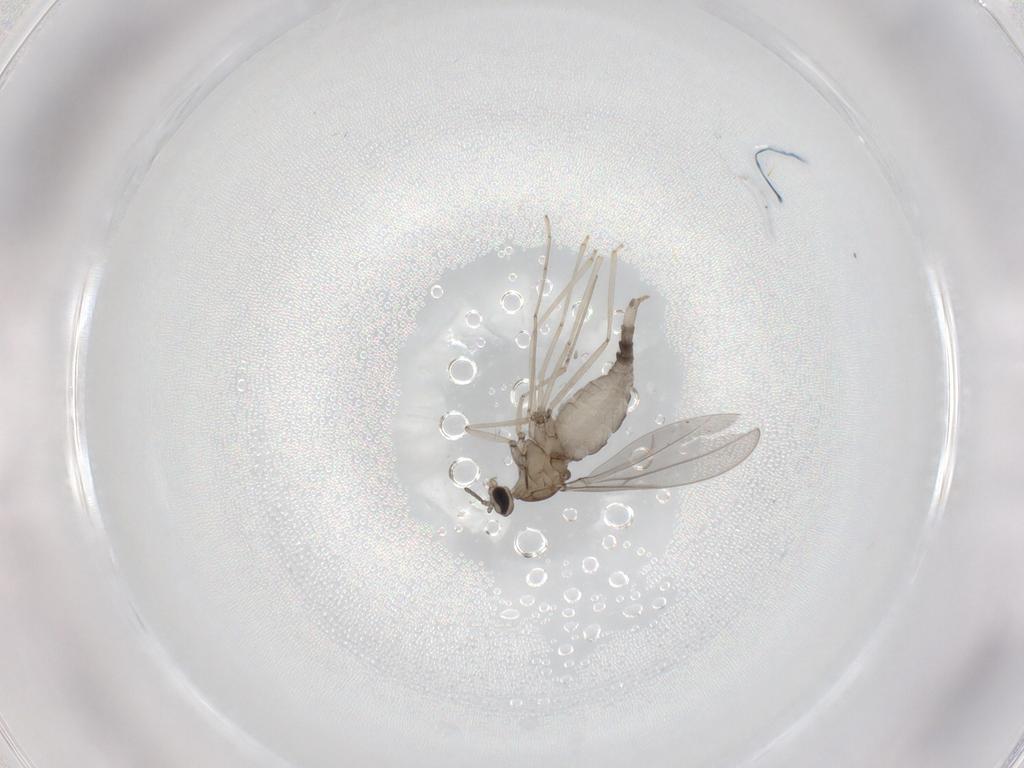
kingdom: Animalia
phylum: Arthropoda
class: Insecta
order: Diptera
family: Cecidomyiidae
